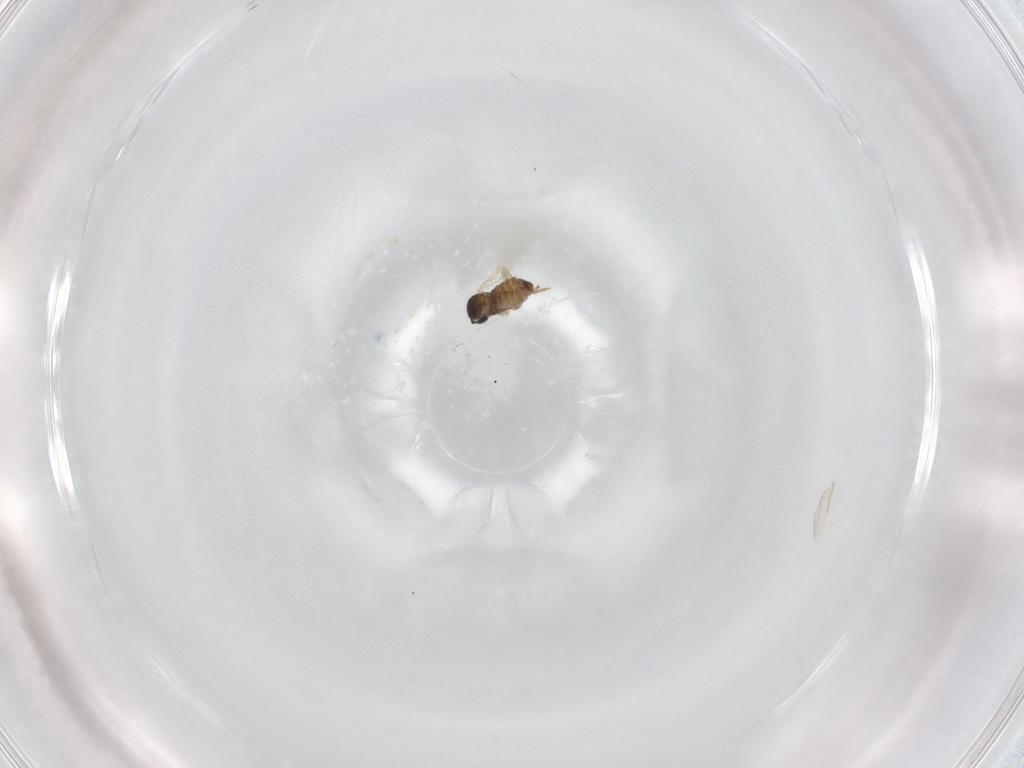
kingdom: Animalia
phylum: Arthropoda
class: Insecta
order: Diptera
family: Cecidomyiidae
